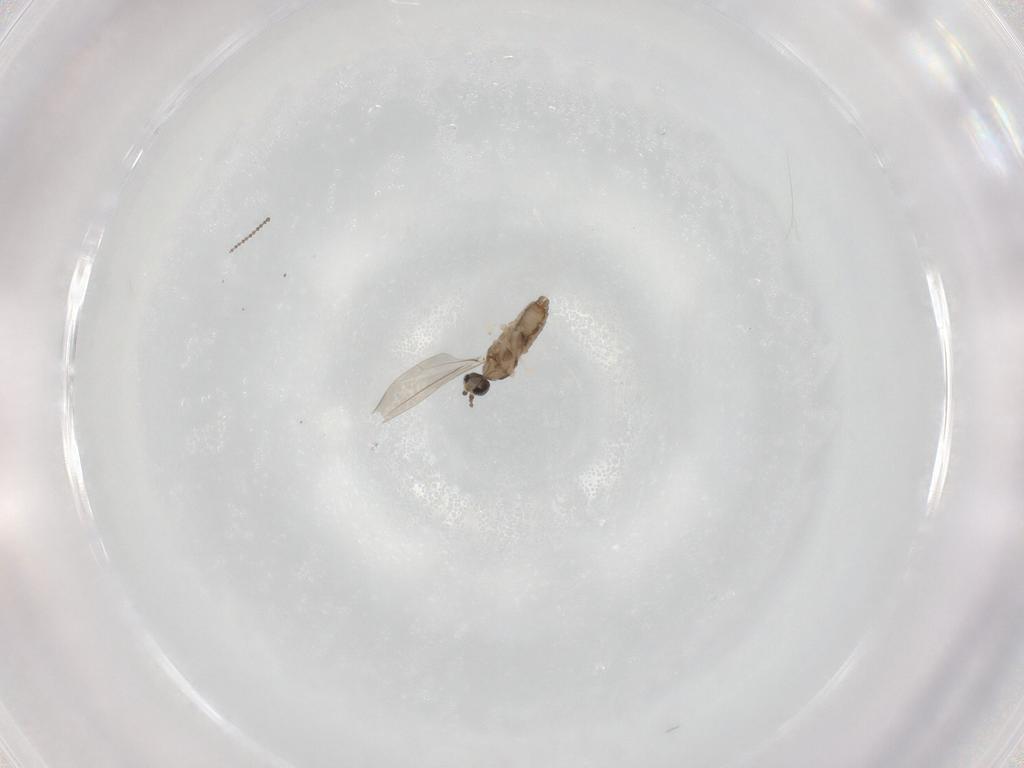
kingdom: Animalia
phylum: Arthropoda
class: Insecta
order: Diptera
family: Cecidomyiidae
